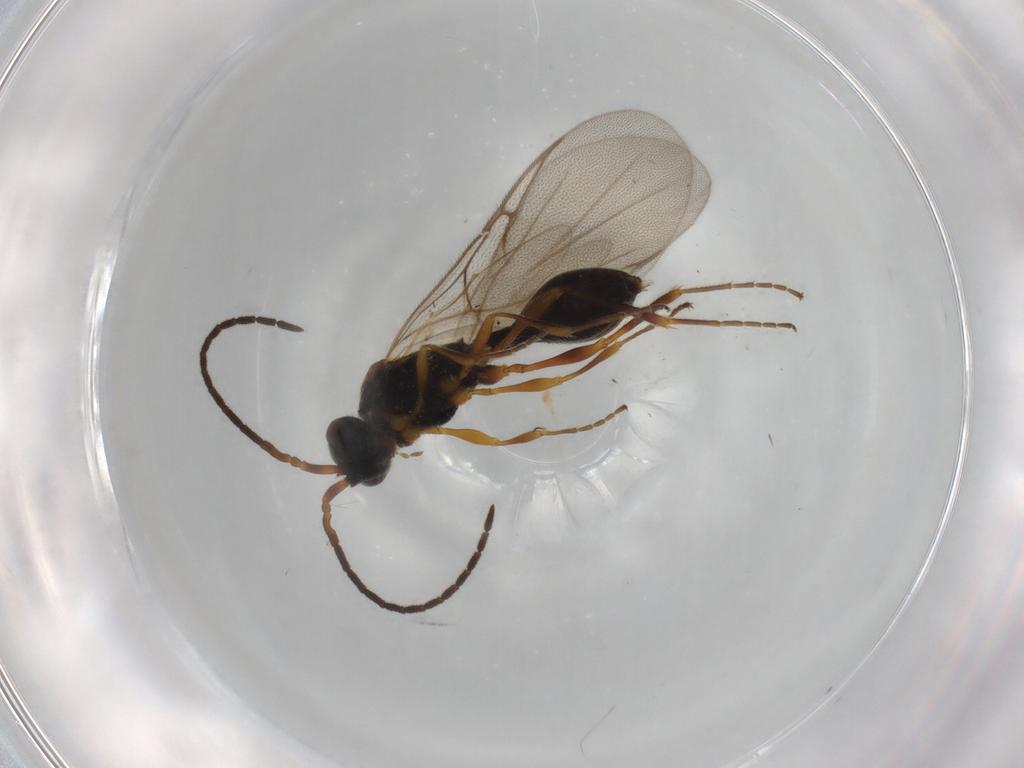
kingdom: Animalia
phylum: Arthropoda
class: Insecta
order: Hymenoptera
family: Diapriidae
